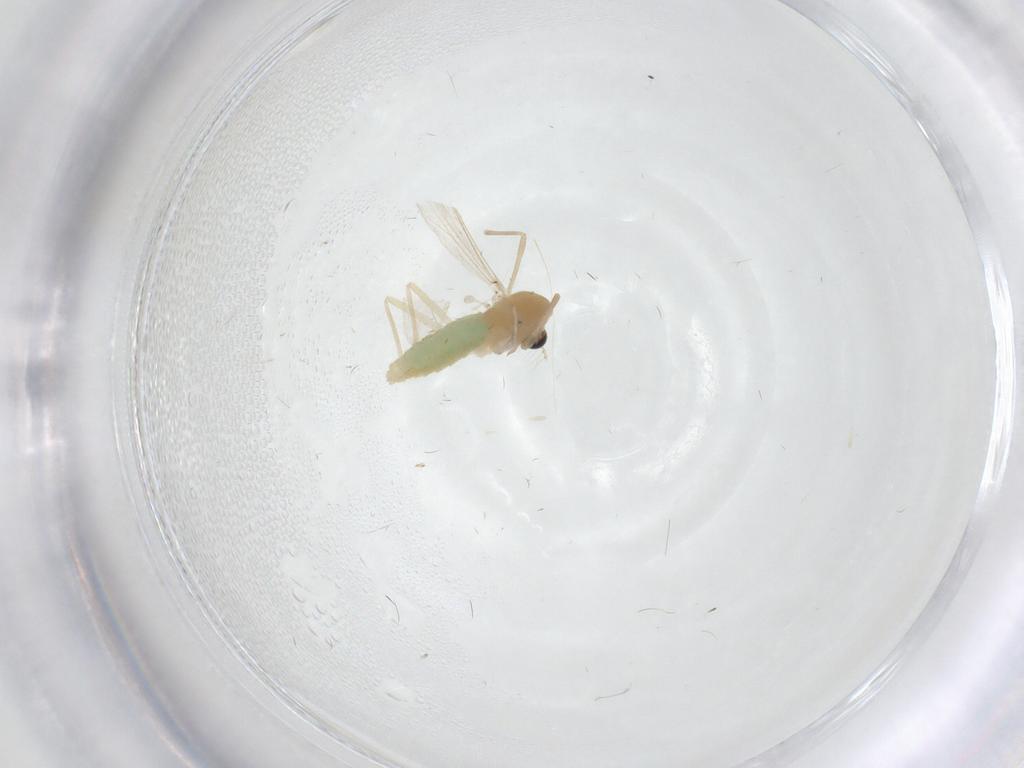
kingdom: Animalia
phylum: Arthropoda
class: Insecta
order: Diptera
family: Chironomidae
